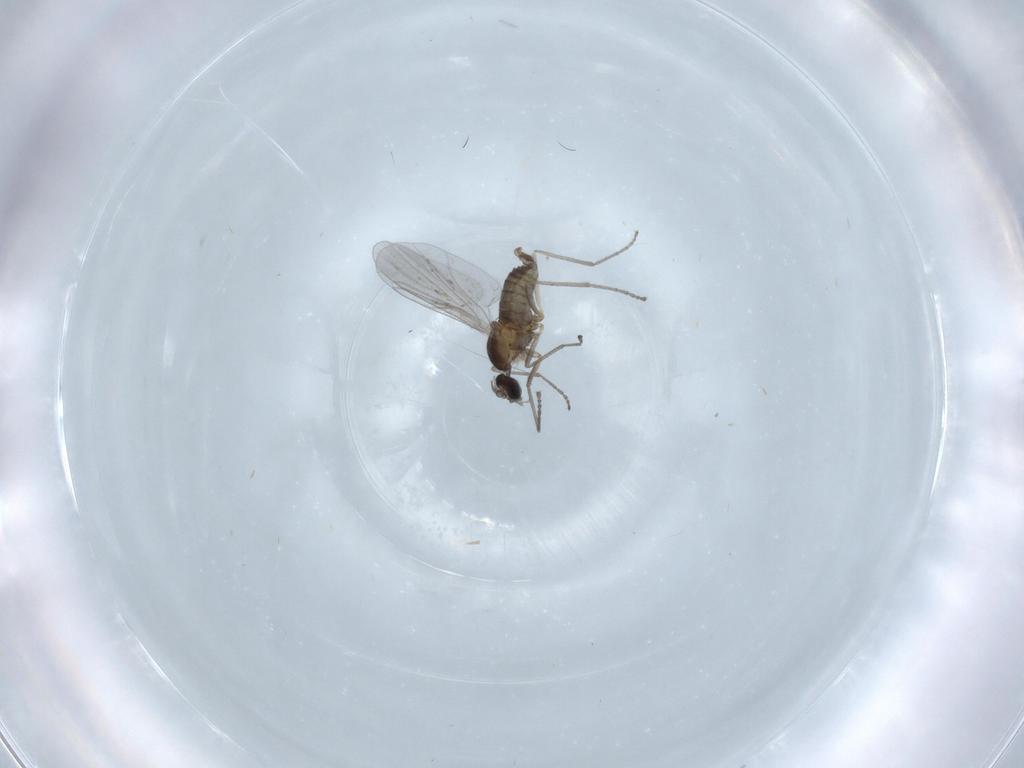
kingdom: Animalia
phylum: Arthropoda
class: Insecta
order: Diptera
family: Cecidomyiidae
